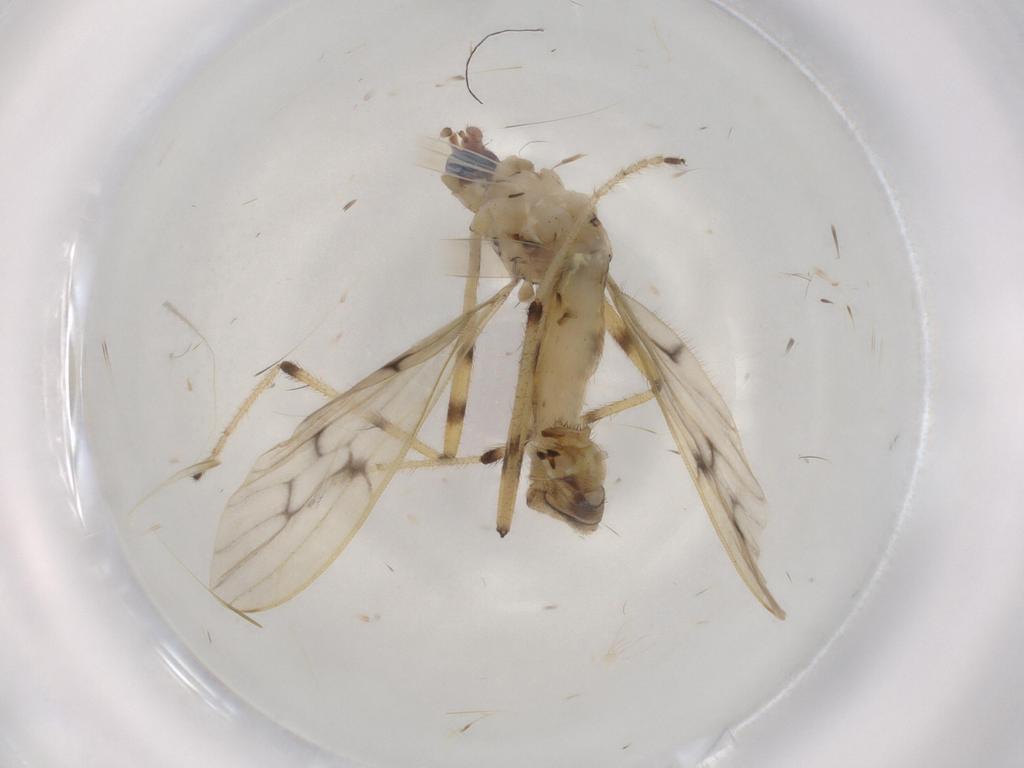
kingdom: Animalia
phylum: Arthropoda
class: Insecta
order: Diptera
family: Limoniidae
